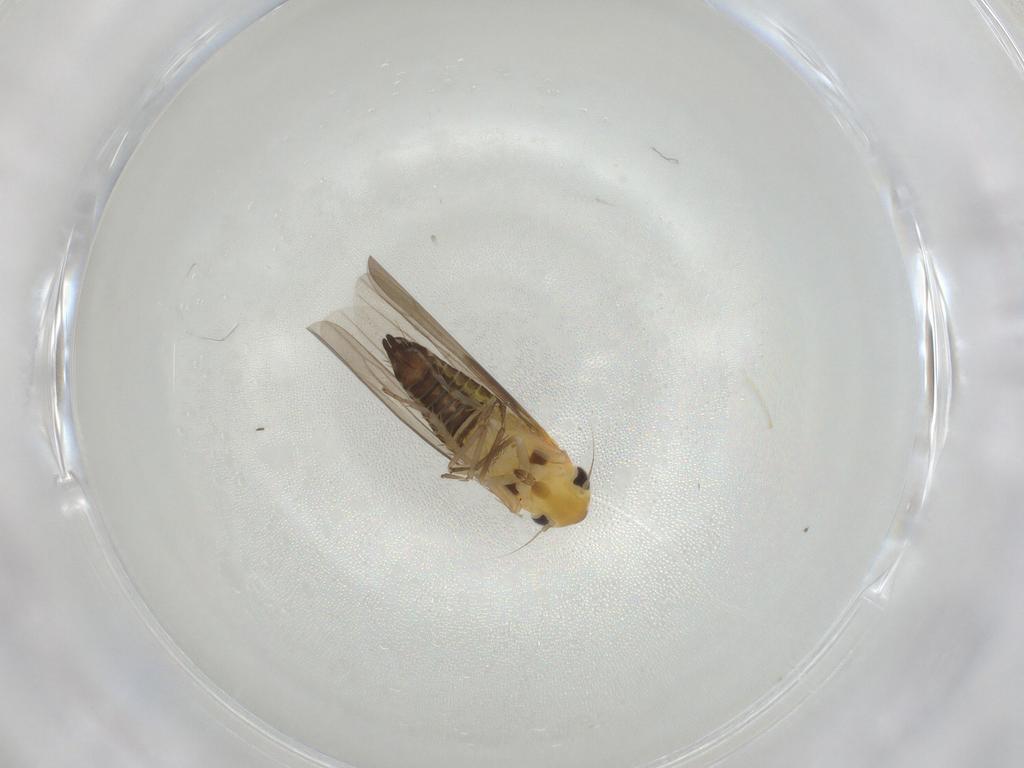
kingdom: Animalia
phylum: Arthropoda
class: Insecta
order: Hemiptera
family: Cicadellidae
